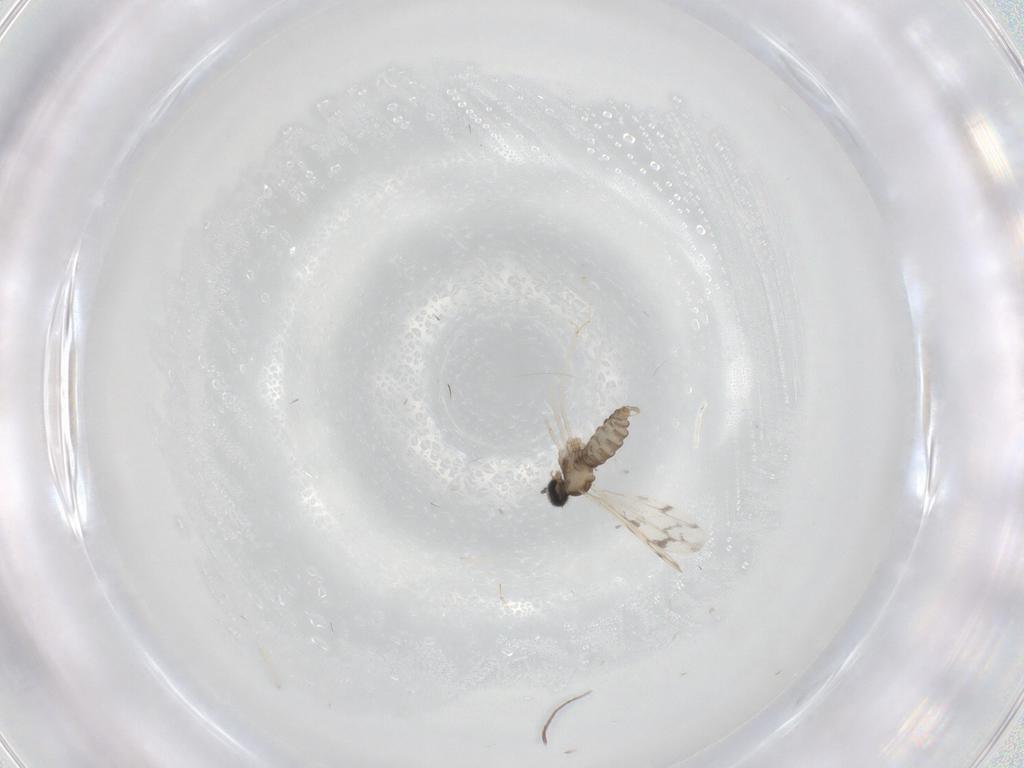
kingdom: Animalia
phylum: Arthropoda
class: Insecta
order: Diptera
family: Cecidomyiidae
